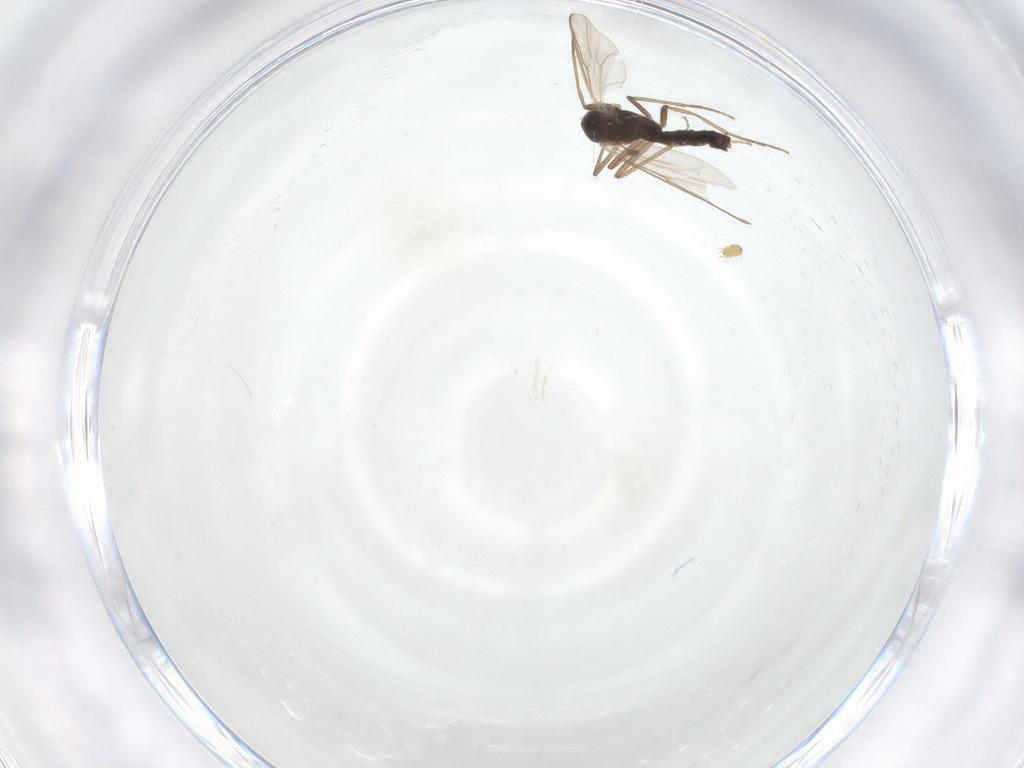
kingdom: Animalia
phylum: Arthropoda
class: Insecta
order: Diptera
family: Chironomidae
